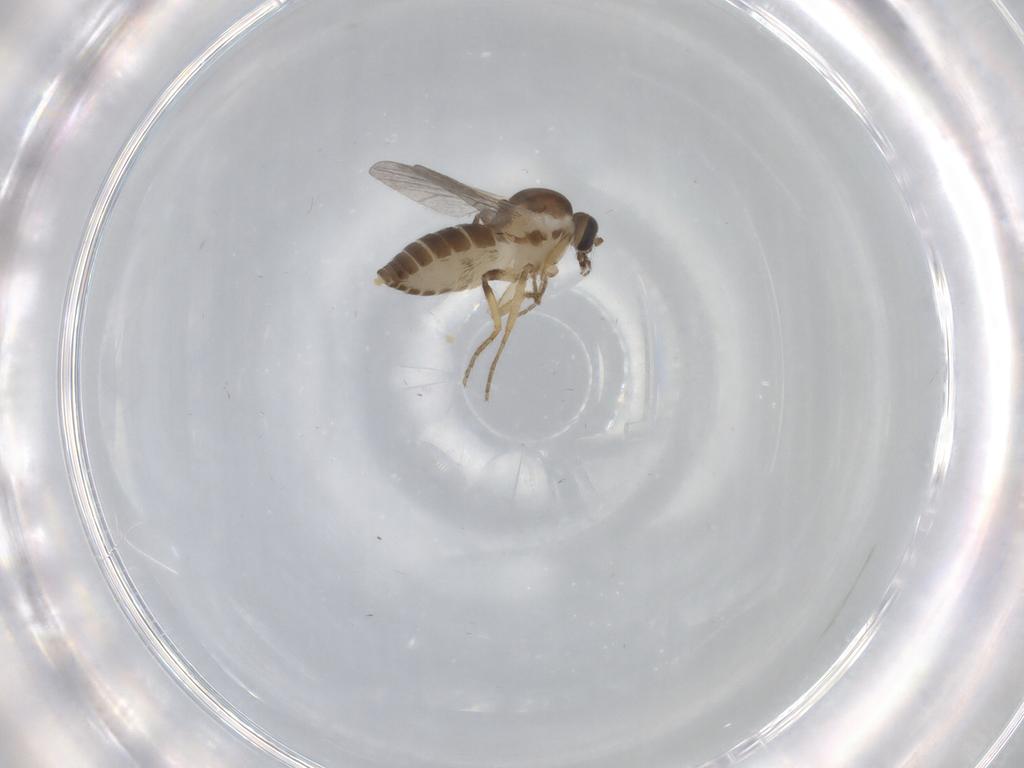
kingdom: Animalia
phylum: Arthropoda
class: Insecta
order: Diptera
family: Ceratopogonidae
